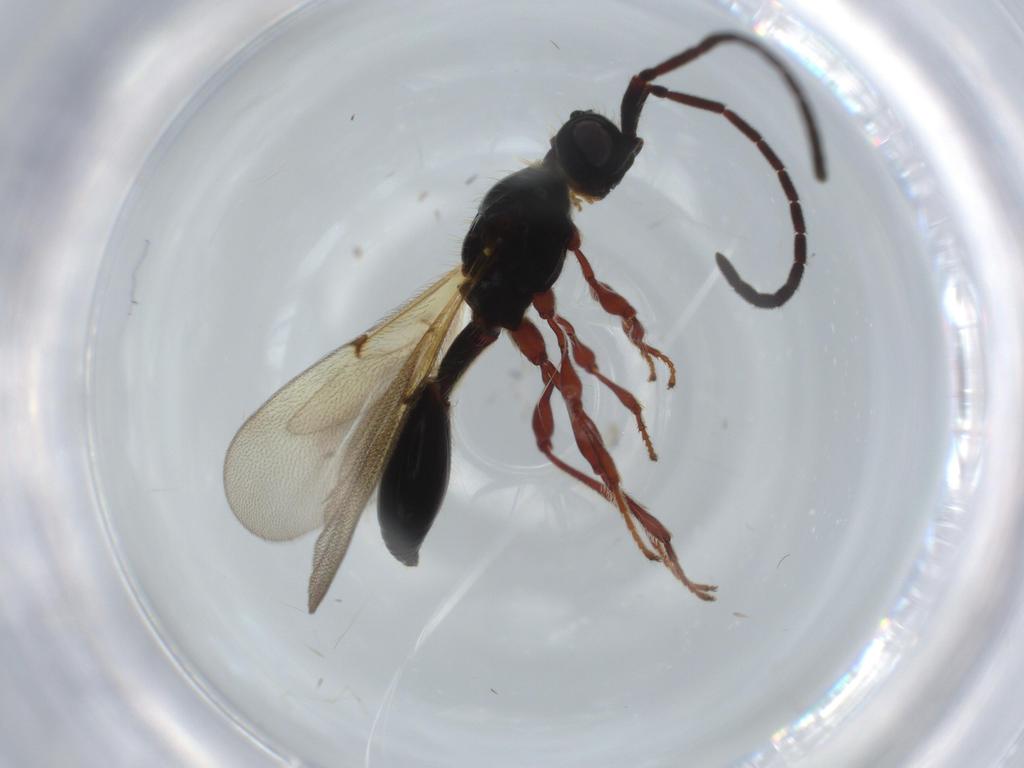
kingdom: Animalia
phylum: Arthropoda
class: Insecta
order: Hymenoptera
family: Diapriidae
